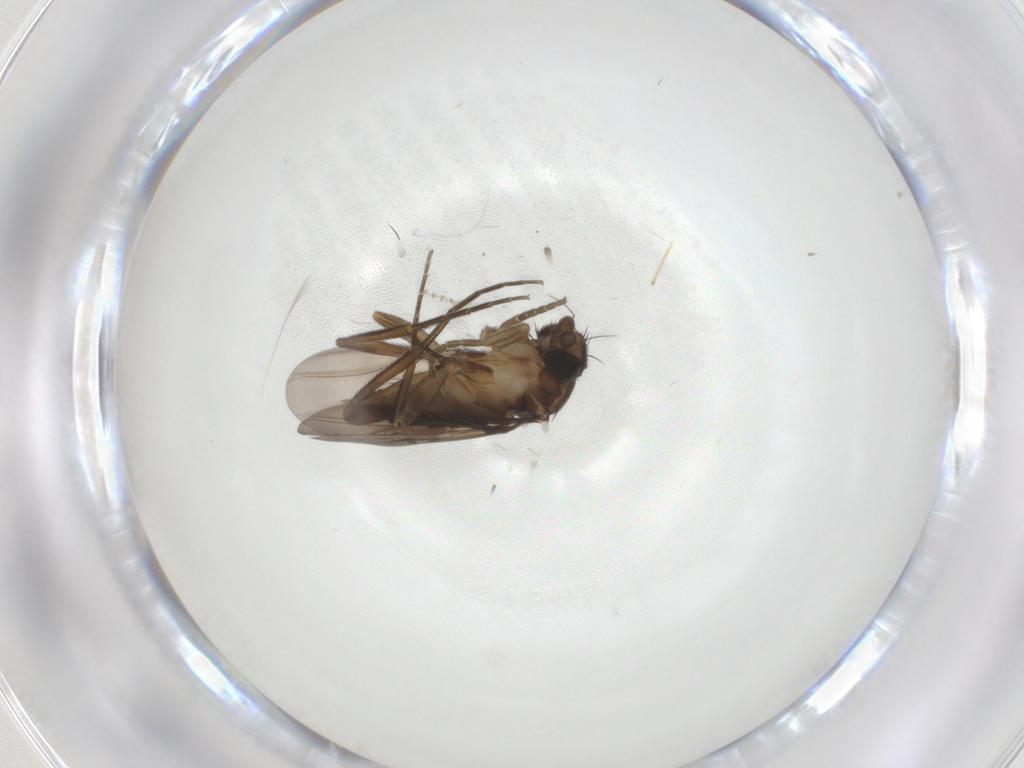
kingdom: Animalia
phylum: Arthropoda
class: Insecta
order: Diptera
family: Phoridae
